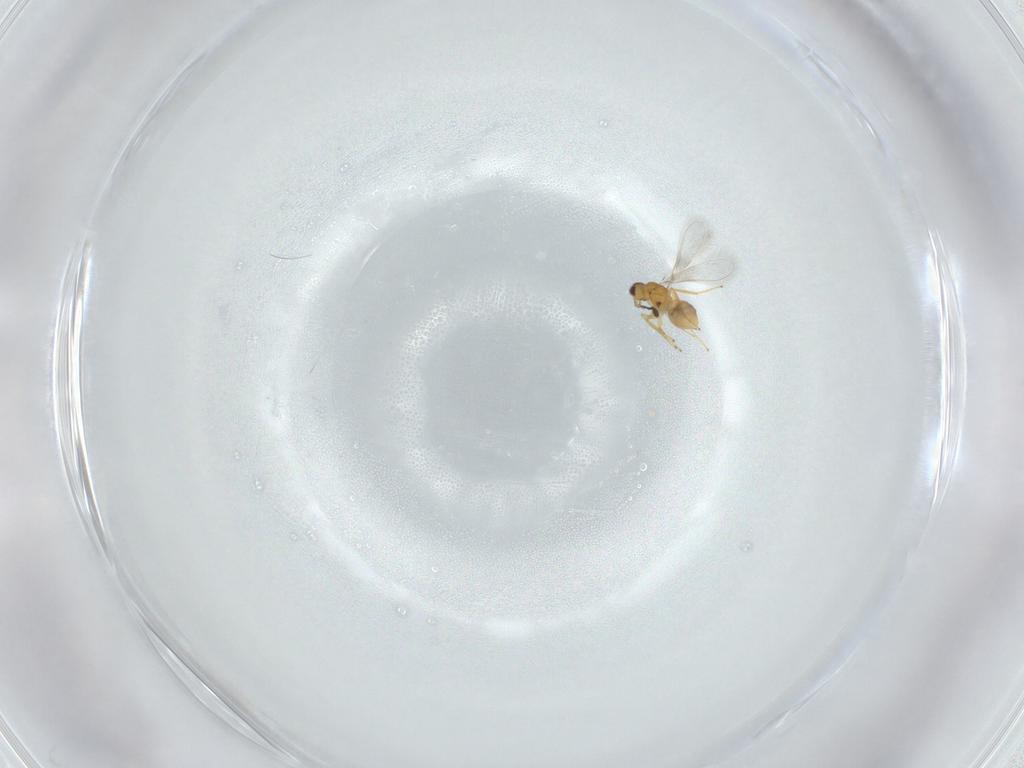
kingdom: Animalia
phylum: Arthropoda
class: Insecta
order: Hymenoptera
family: Mymaridae
